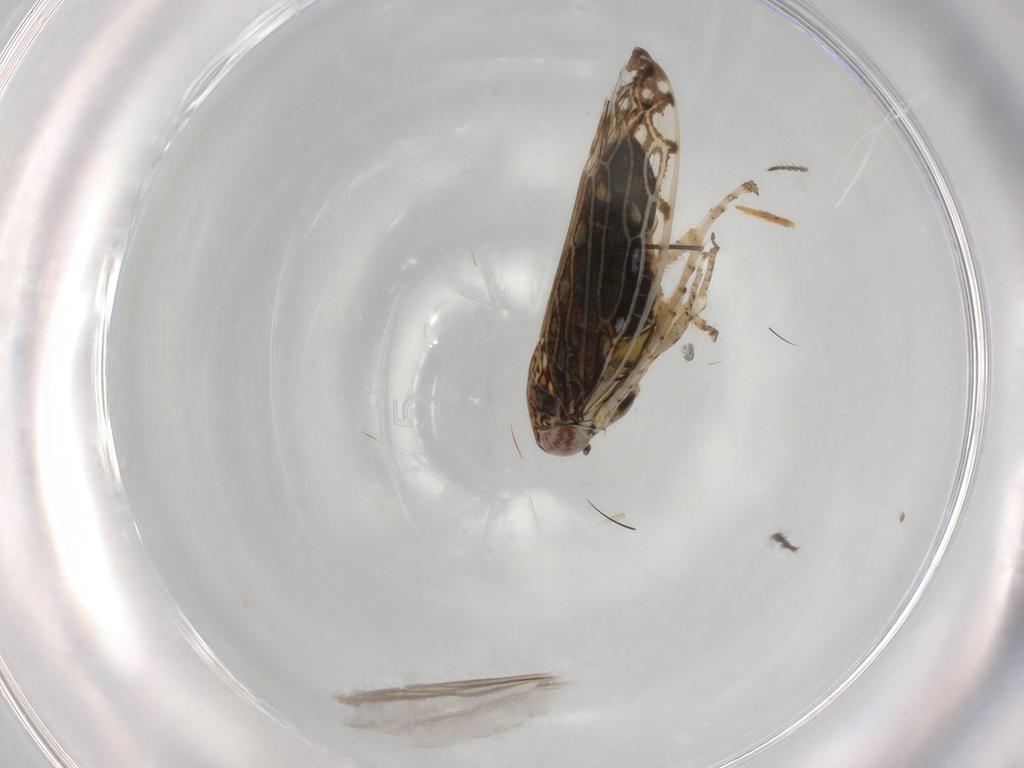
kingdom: Animalia
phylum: Arthropoda
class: Insecta
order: Hemiptera
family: Cicadellidae
